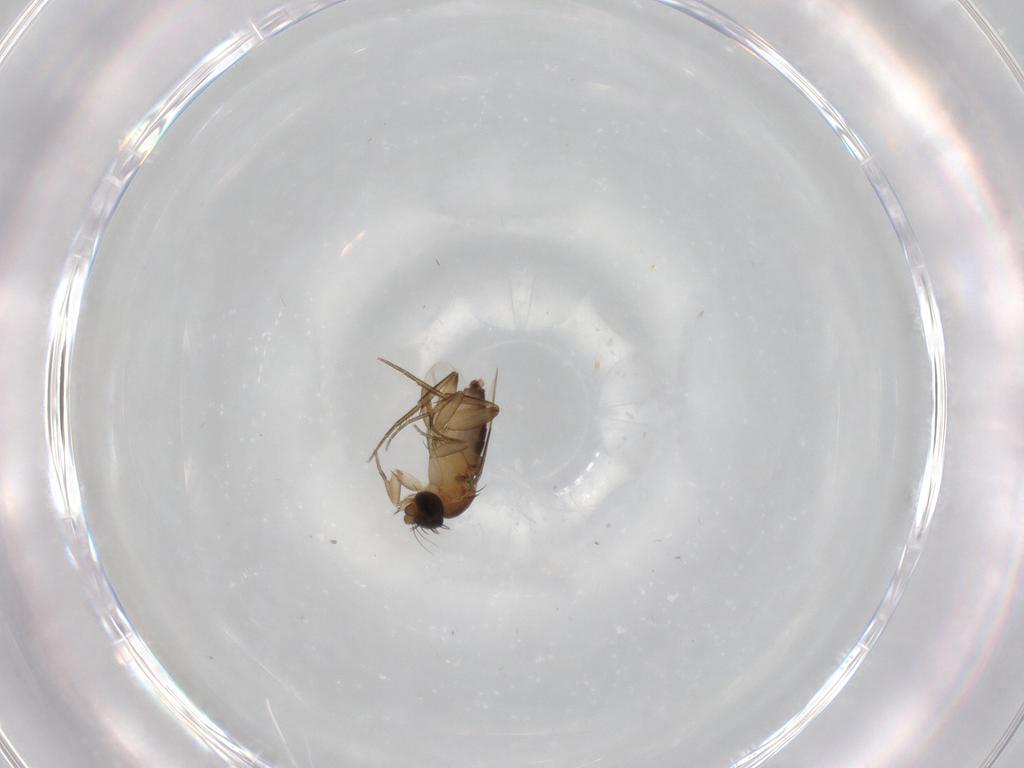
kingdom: Animalia
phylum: Arthropoda
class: Insecta
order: Diptera
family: Phoridae
